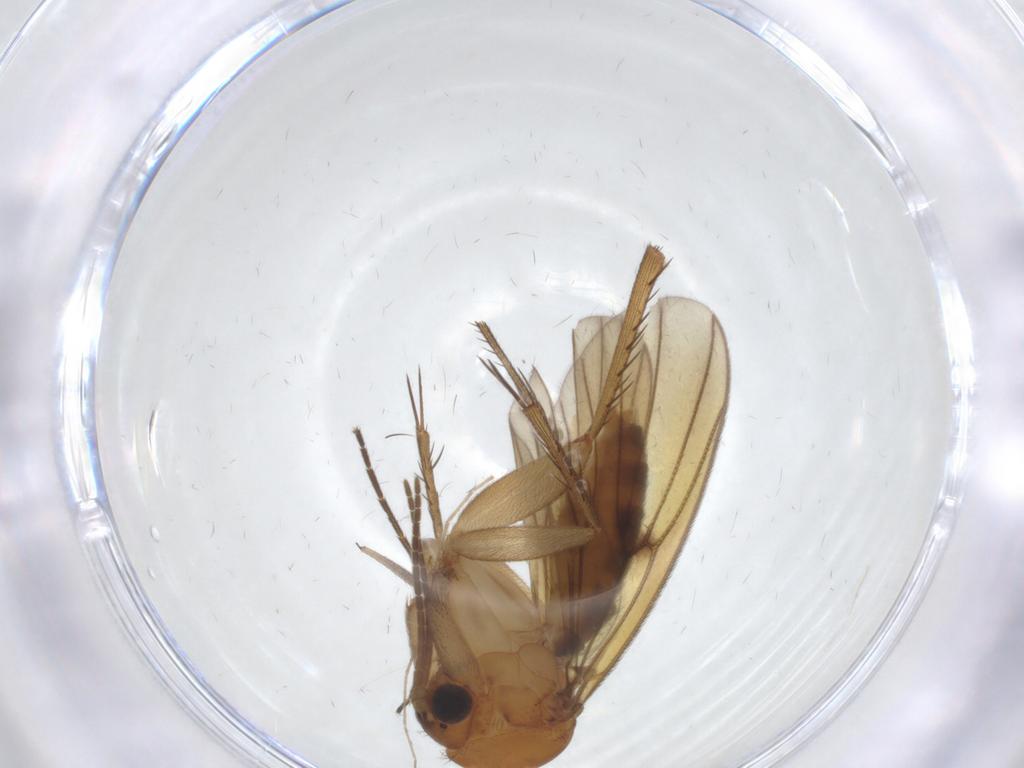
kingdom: Animalia
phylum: Arthropoda
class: Insecta
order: Diptera
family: Mycetophilidae
